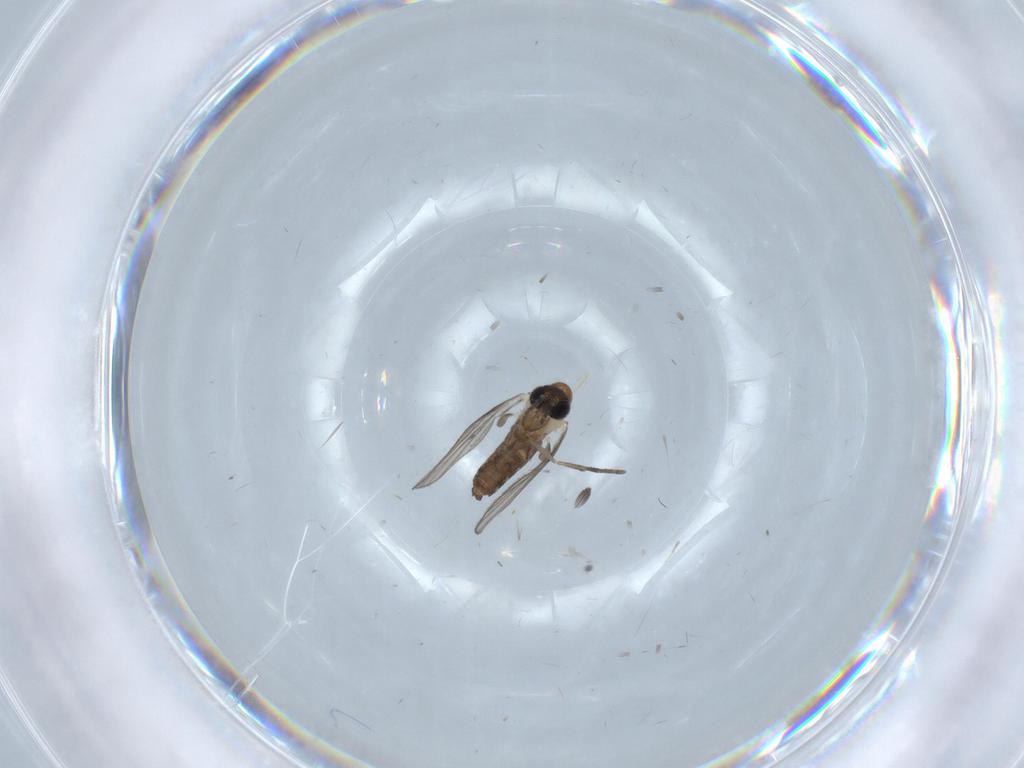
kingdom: Animalia
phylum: Arthropoda
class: Insecta
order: Diptera
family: Psychodidae
